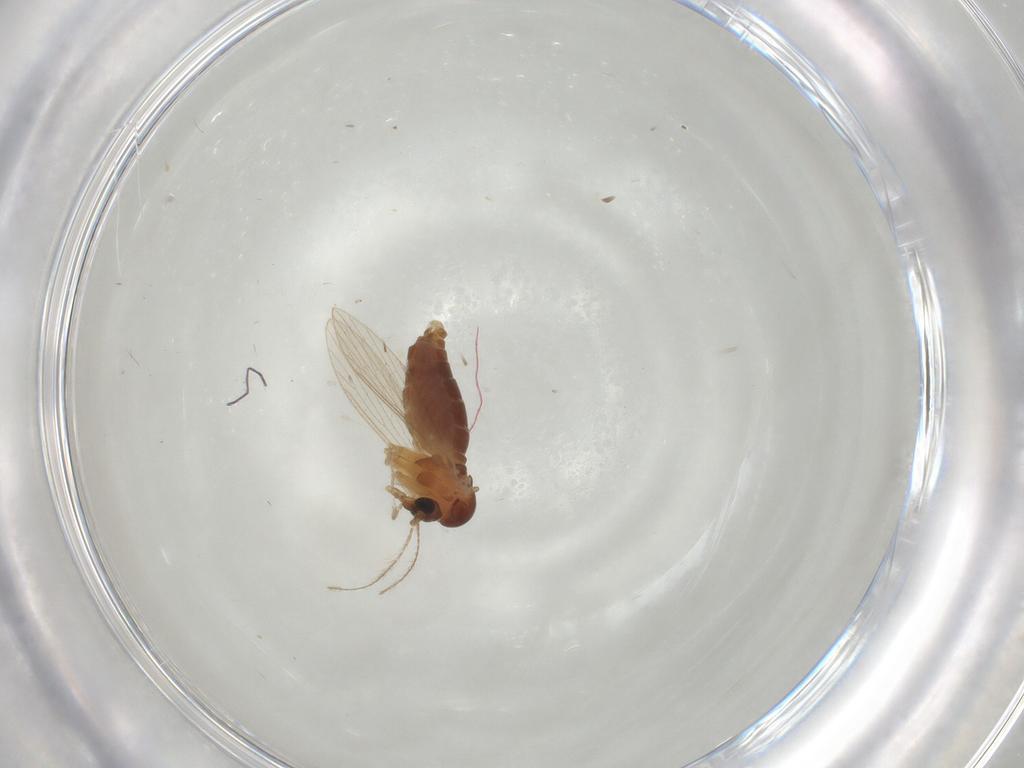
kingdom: Animalia
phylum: Arthropoda
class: Insecta
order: Diptera
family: Psychodidae
